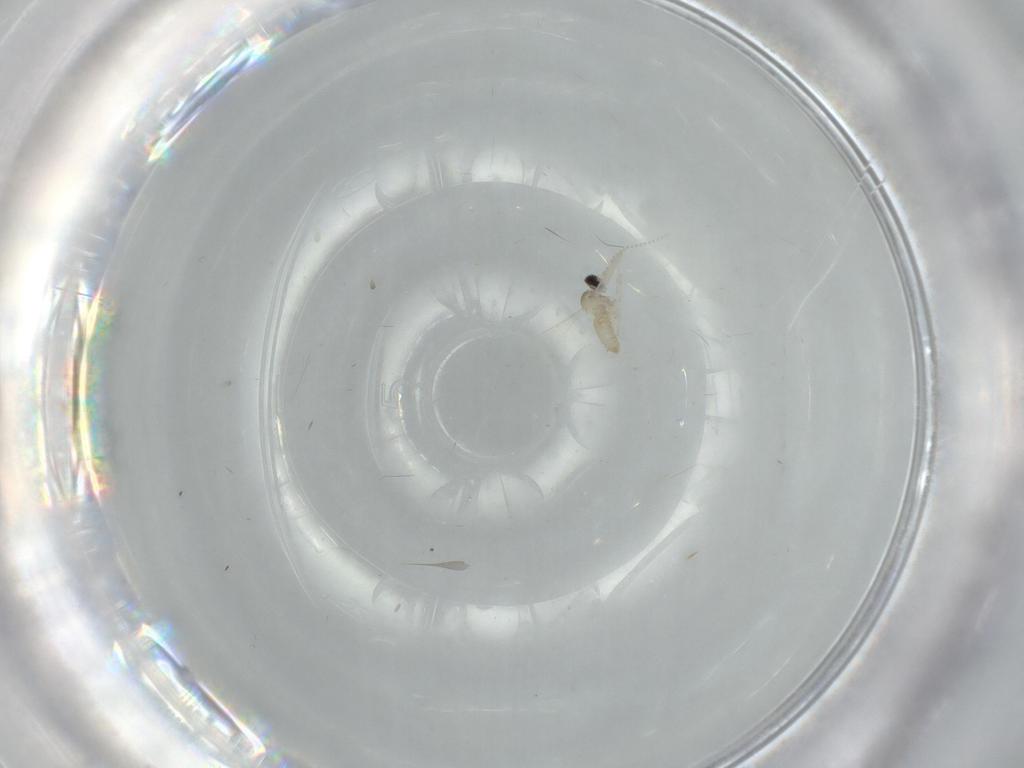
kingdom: Animalia
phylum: Arthropoda
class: Insecta
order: Diptera
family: Cecidomyiidae
